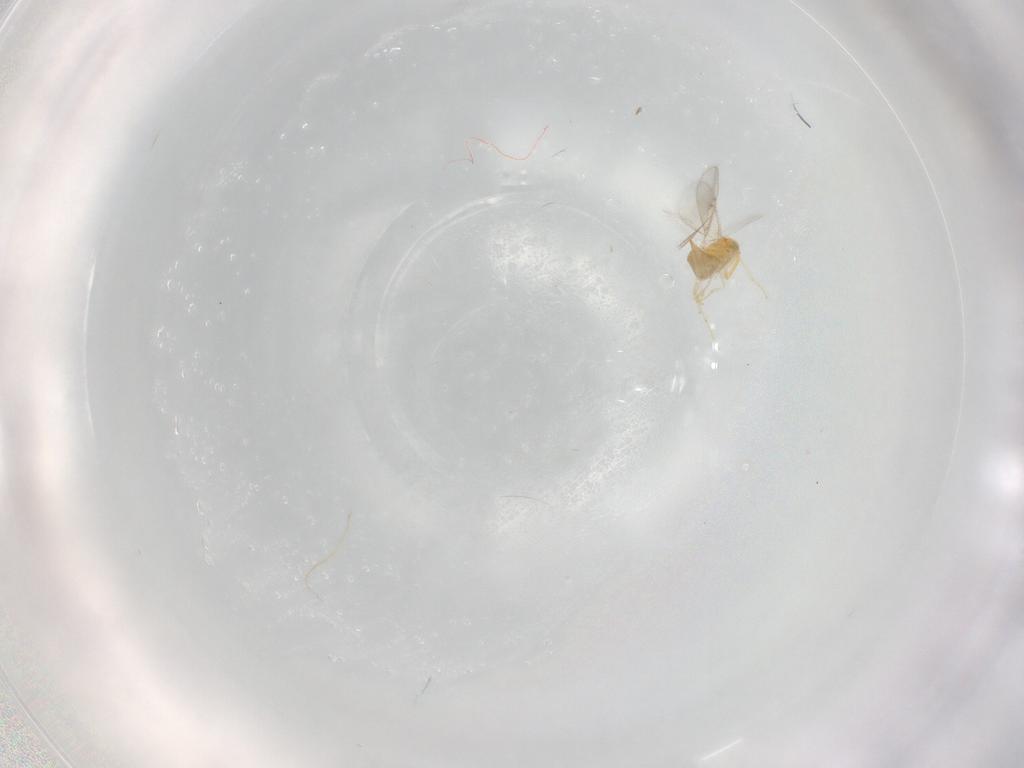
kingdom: Animalia
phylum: Arthropoda
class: Insecta
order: Hymenoptera
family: Aphelinidae
